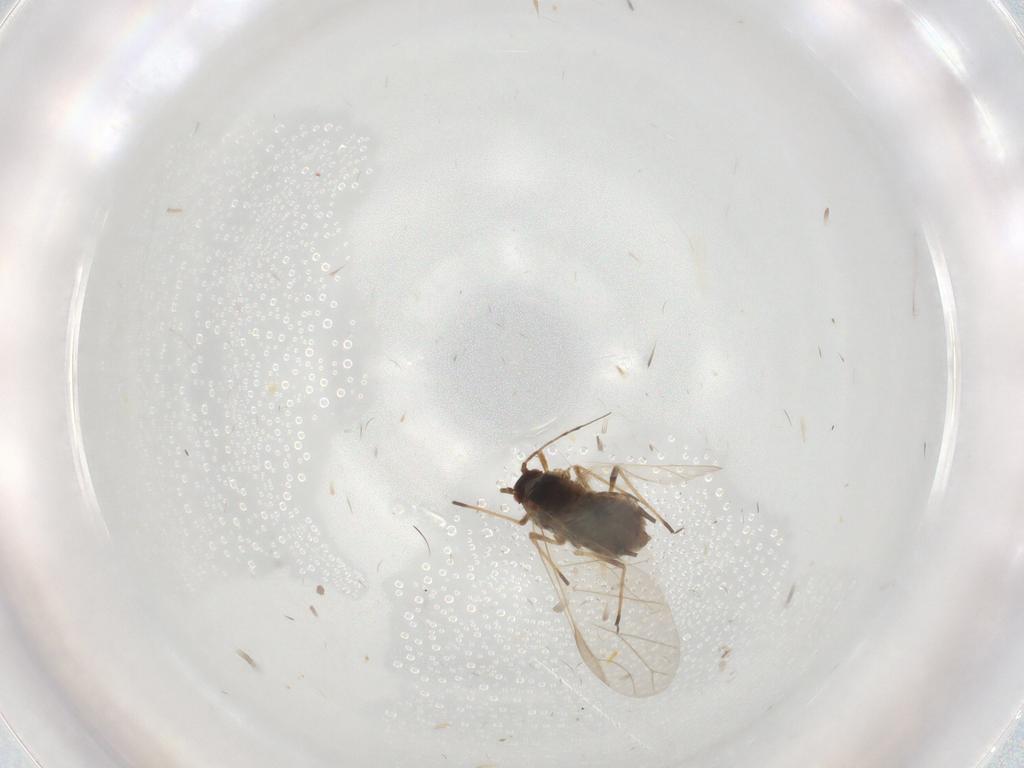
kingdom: Animalia
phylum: Arthropoda
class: Insecta
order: Hemiptera
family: Aphididae
